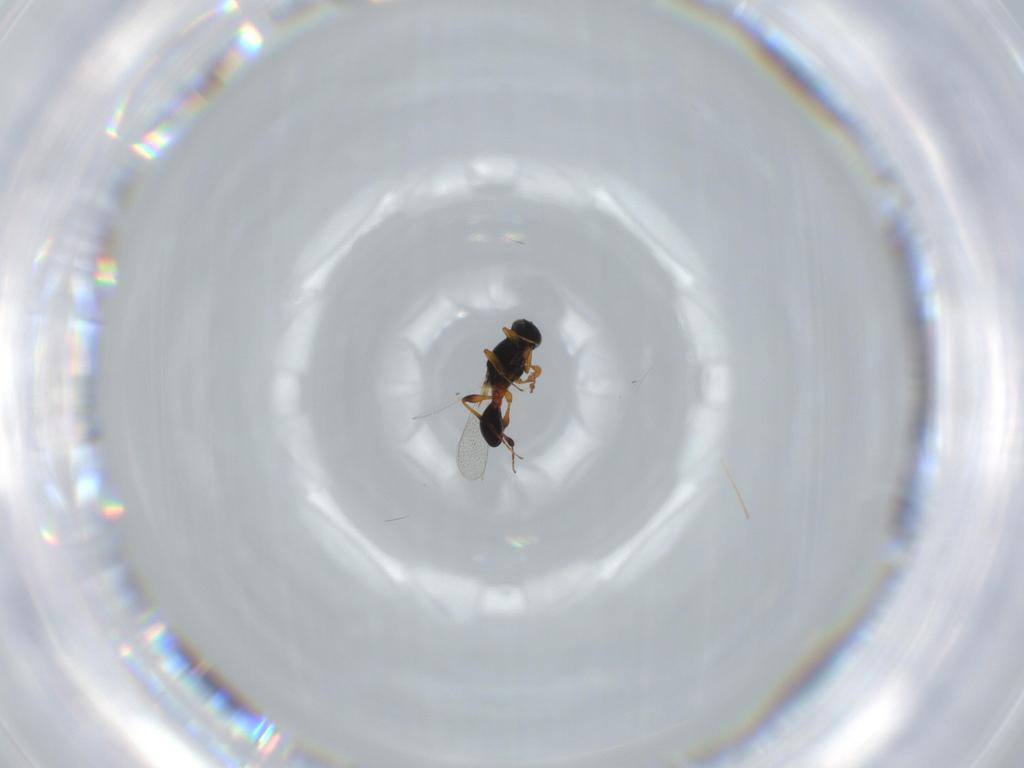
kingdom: Animalia
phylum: Arthropoda
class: Insecta
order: Hymenoptera
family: Platygastridae
